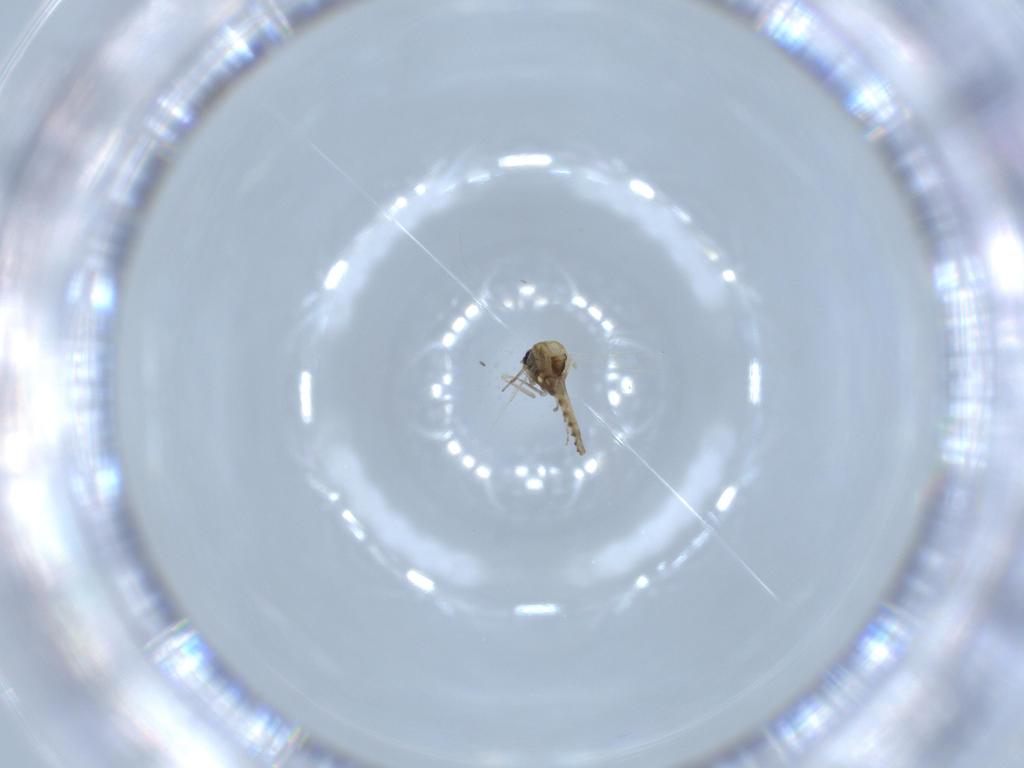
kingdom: Animalia
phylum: Arthropoda
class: Insecta
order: Diptera
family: Ceratopogonidae
